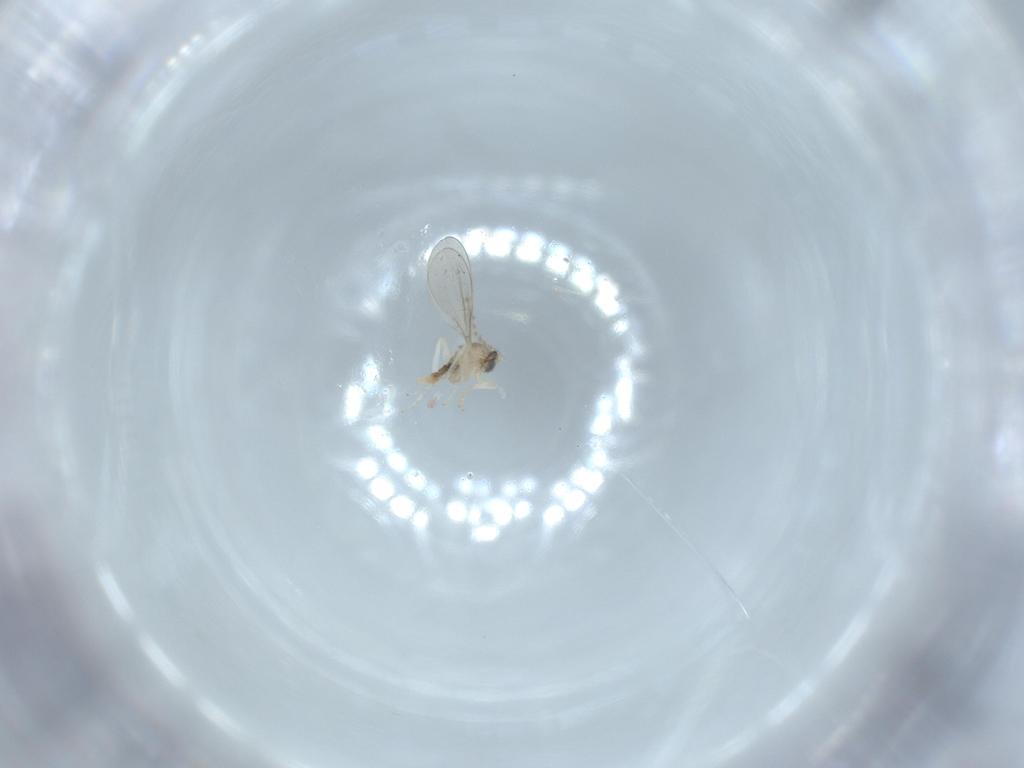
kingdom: Animalia
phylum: Arthropoda
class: Insecta
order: Diptera
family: Cecidomyiidae
